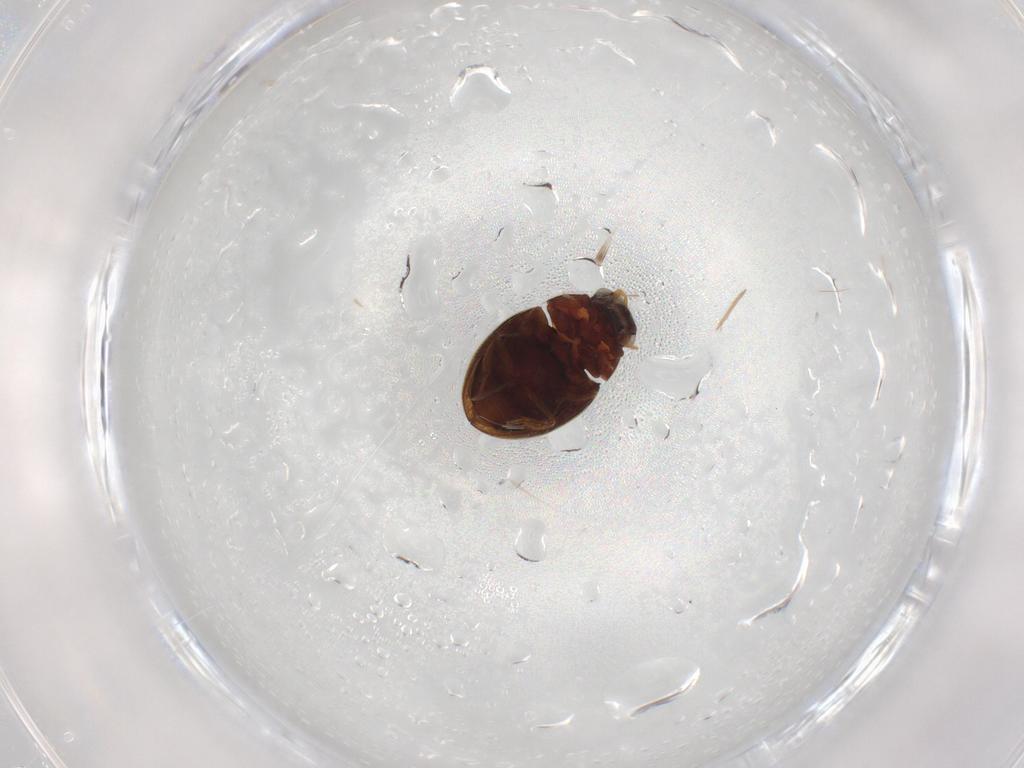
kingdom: Animalia
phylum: Arthropoda
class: Insecta
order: Coleoptera
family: Hydrophilidae
